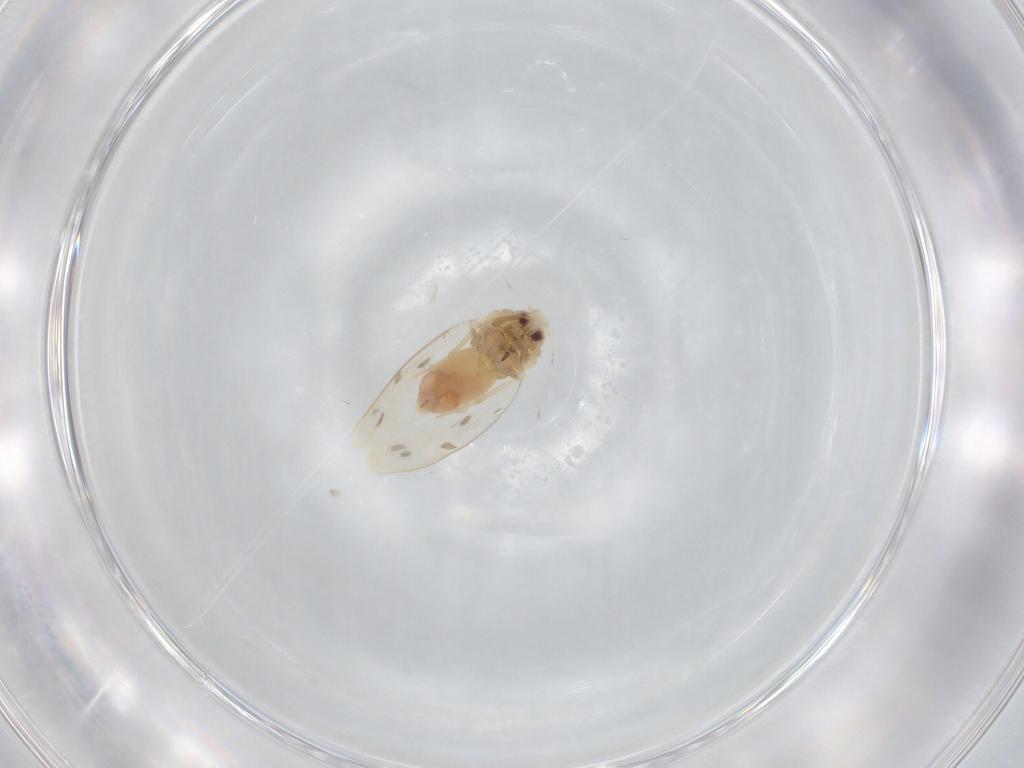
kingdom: Animalia
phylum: Arthropoda
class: Insecta
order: Hemiptera
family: Aleyrodidae
